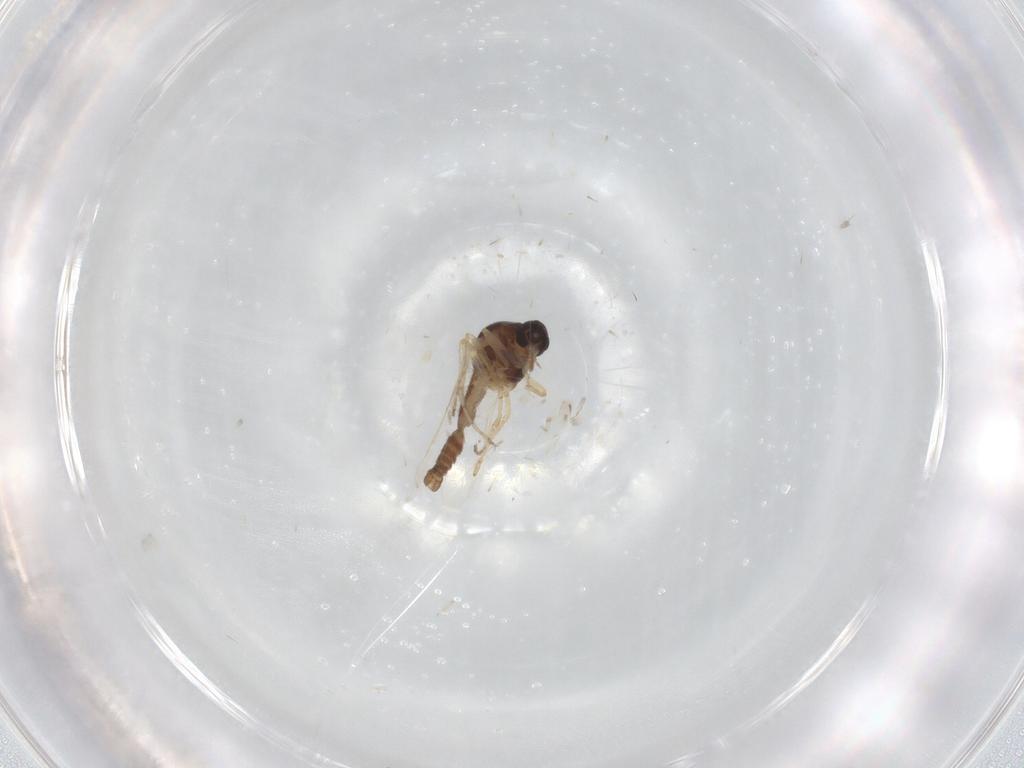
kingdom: Animalia
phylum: Arthropoda
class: Insecta
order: Diptera
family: Ceratopogonidae
